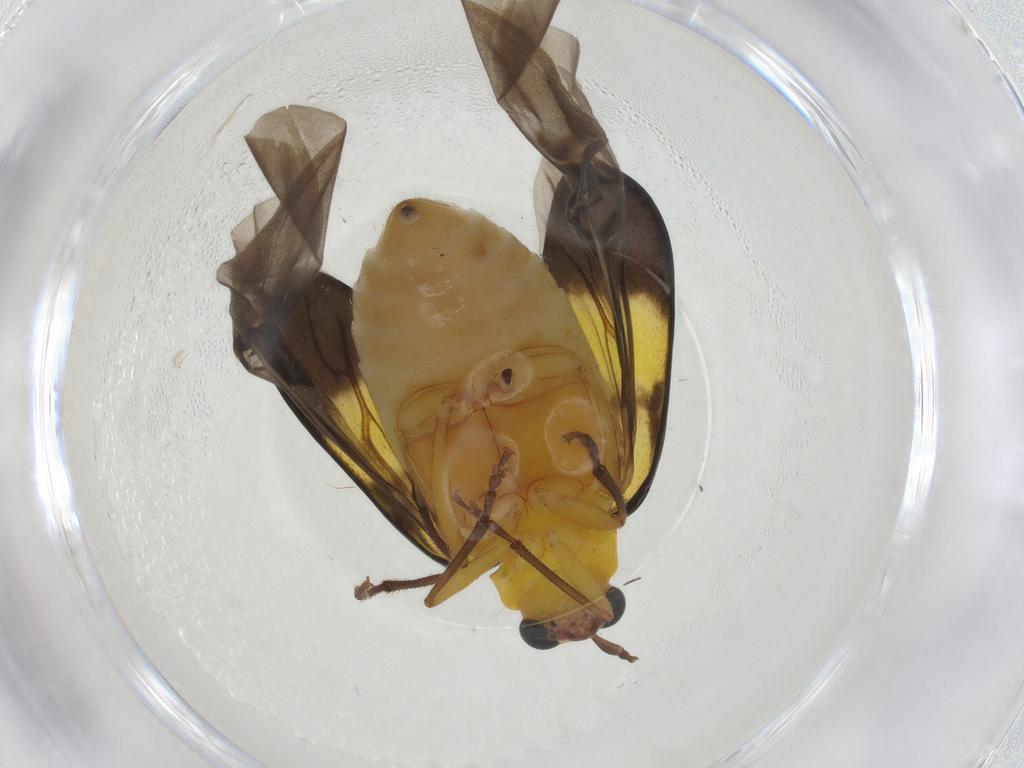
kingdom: Animalia
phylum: Arthropoda
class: Insecta
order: Coleoptera
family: Chrysomelidae
